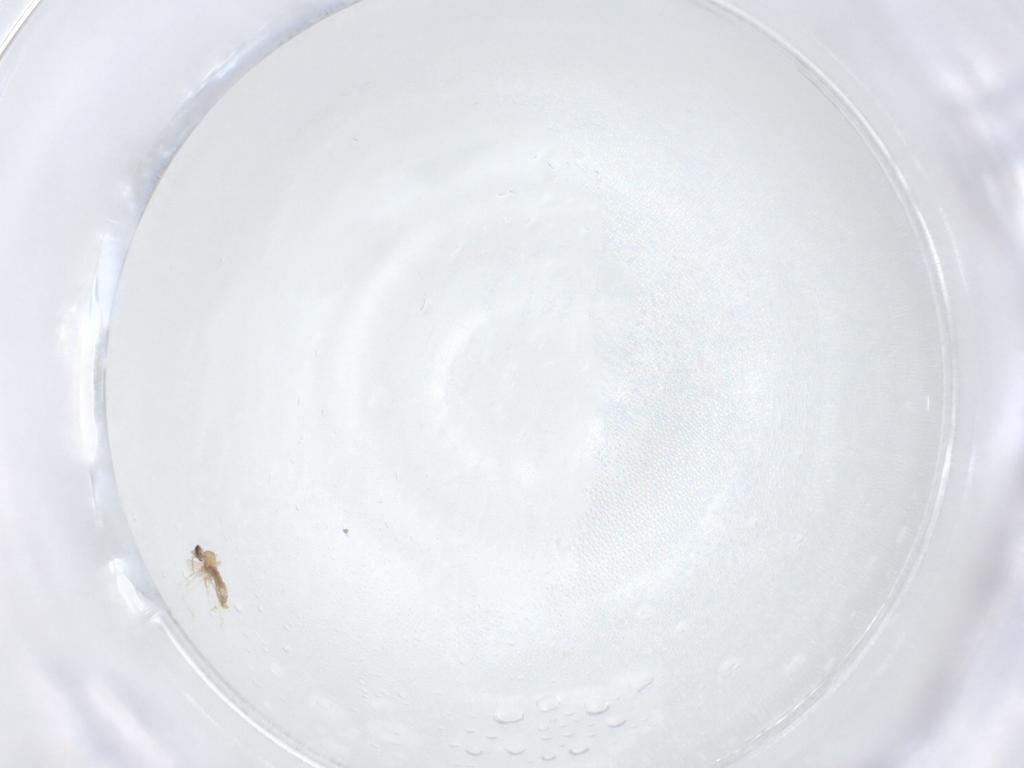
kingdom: Animalia
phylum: Arthropoda
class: Insecta
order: Diptera
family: Cecidomyiidae
